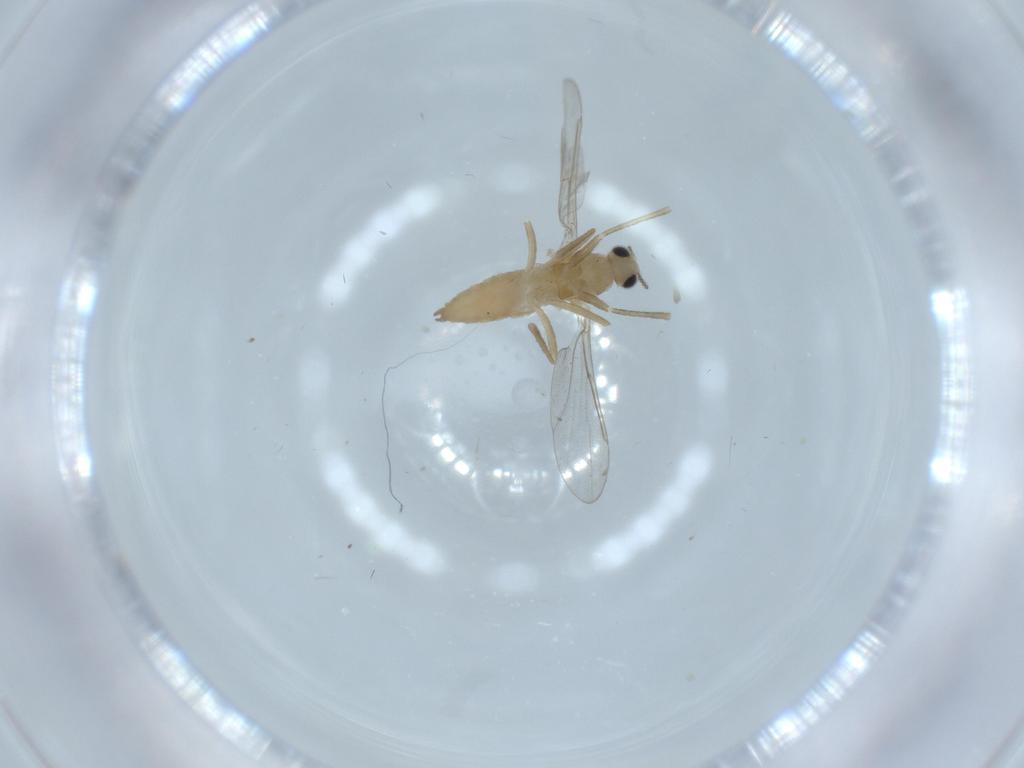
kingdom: Animalia
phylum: Arthropoda
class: Insecta
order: Diptera
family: Cecidomyiidae
